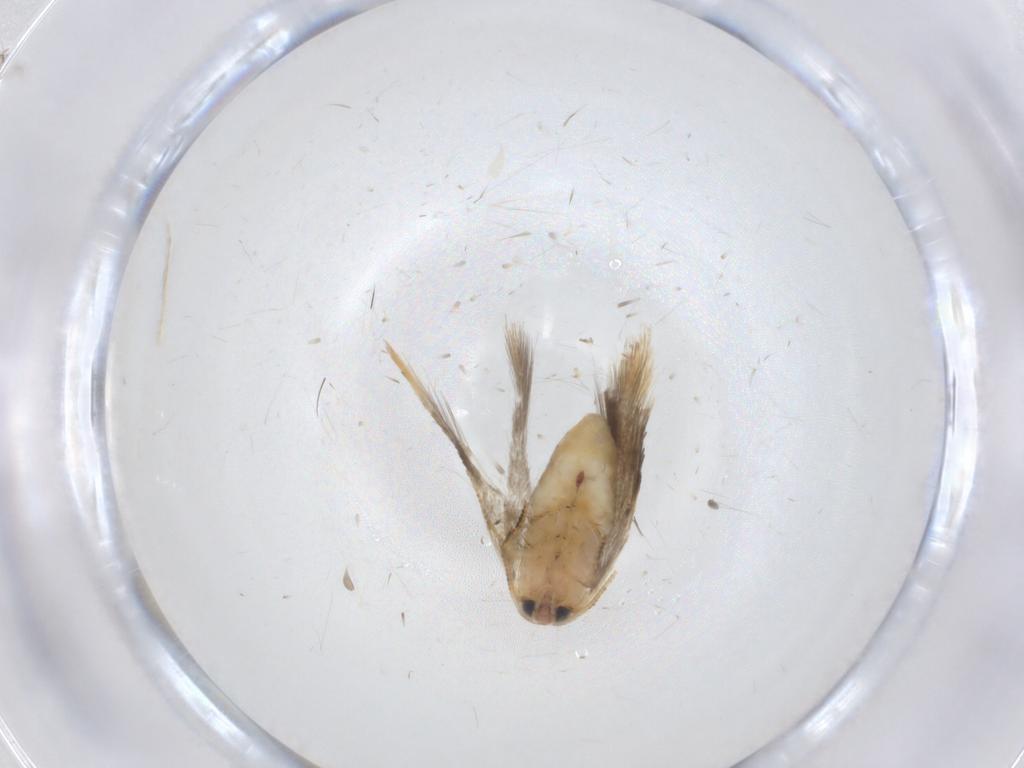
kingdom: Animalia
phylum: Arthropoda
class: Insecta
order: Lepidoptera
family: Nepticulidae
